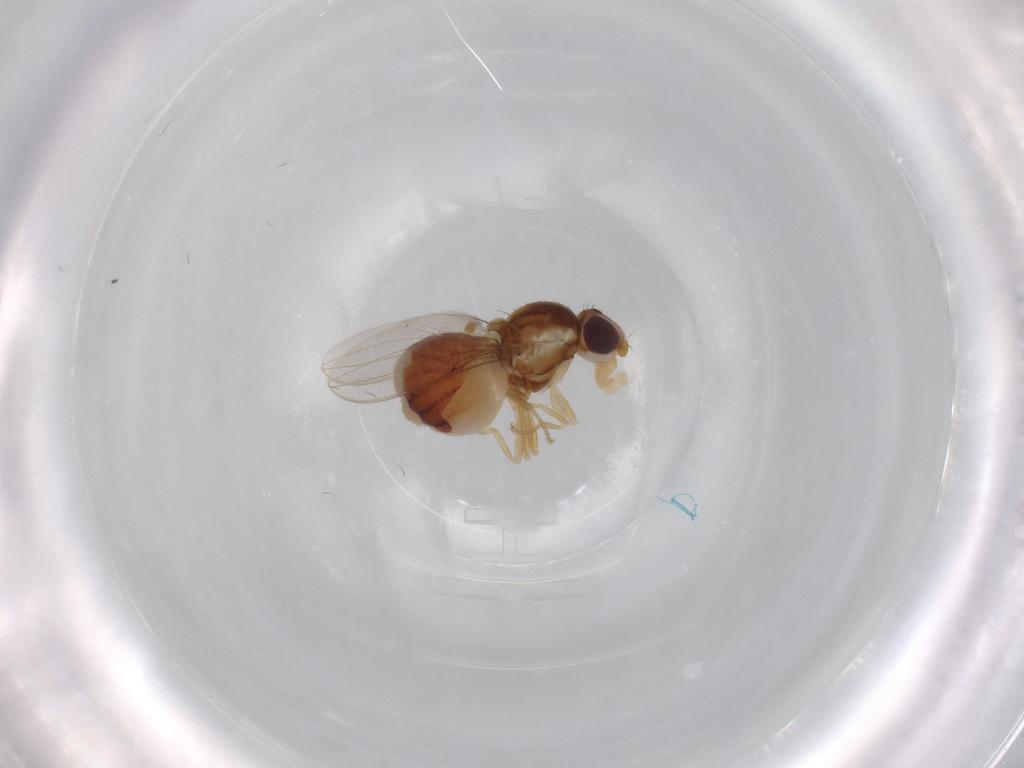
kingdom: Animalia
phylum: Arthropoda
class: Insecta
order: Diptera
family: Chloropidae
